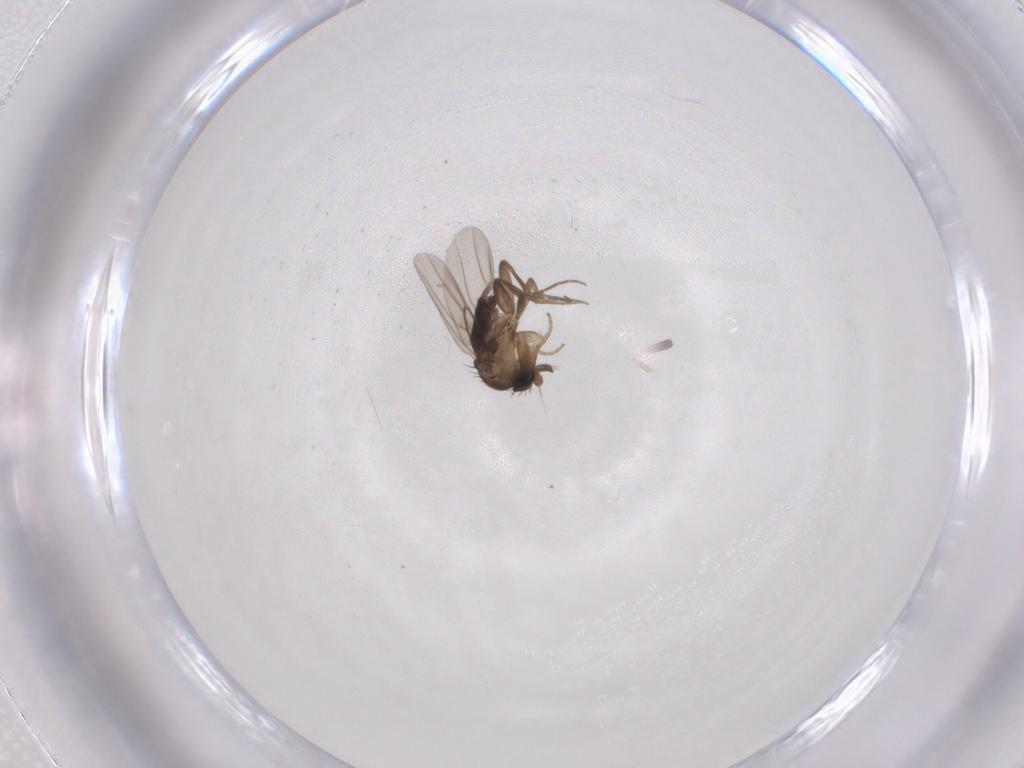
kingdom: Animalia
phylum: Arthropoda
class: Insecta
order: Diptera
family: Phoridae
